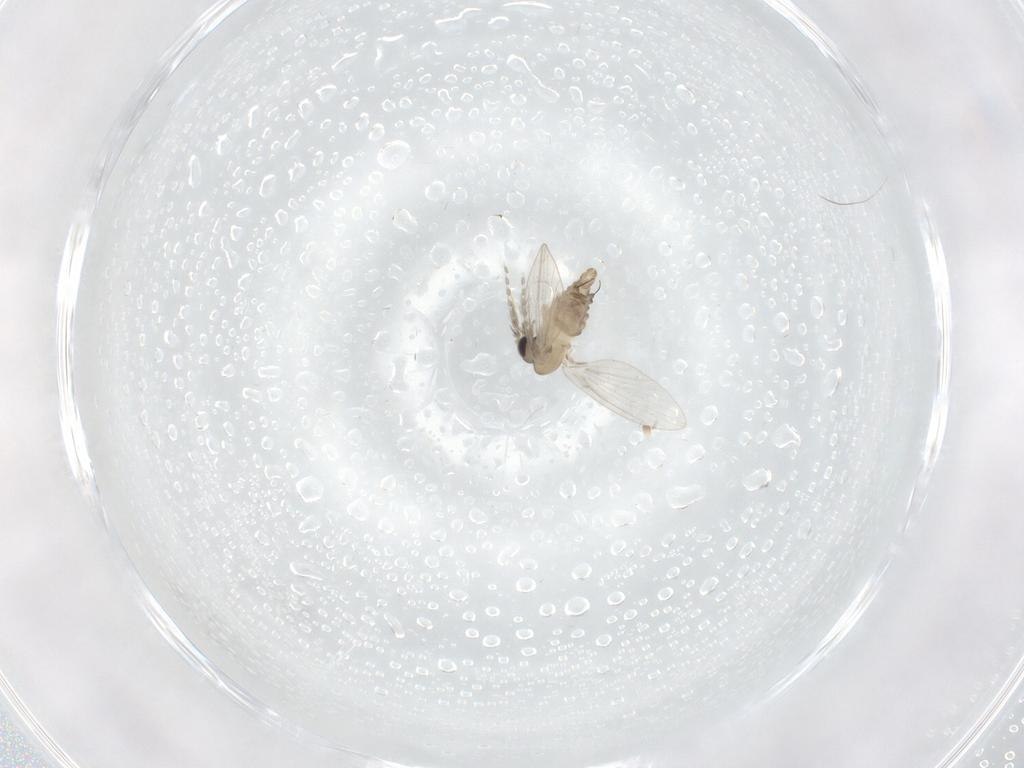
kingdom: Animalia
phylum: Arthropoda
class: Insecta
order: Diptera
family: Psychodidae
